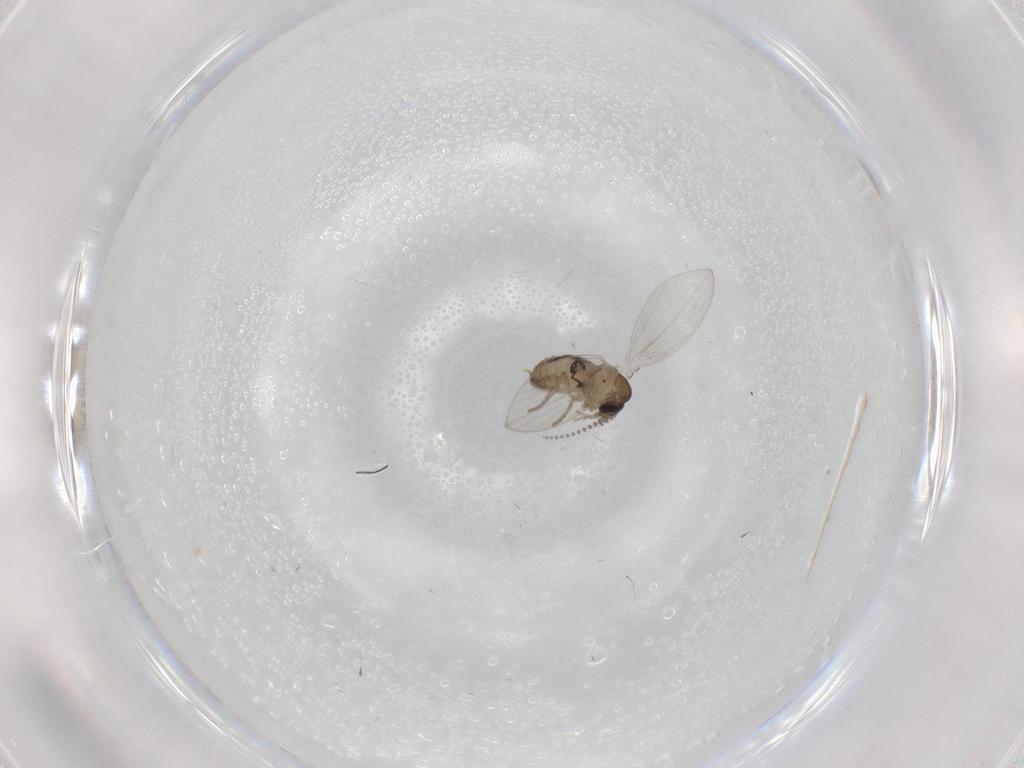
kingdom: Animalia
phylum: Arthropoda
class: Insecta
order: Diptera
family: Psychodidae
